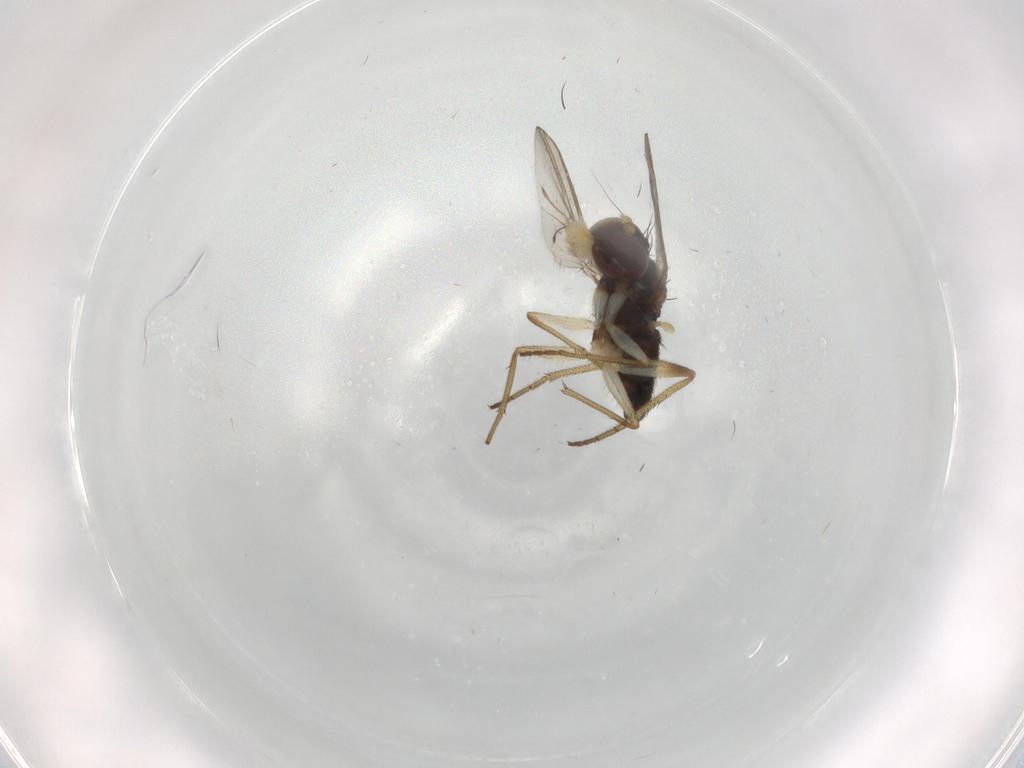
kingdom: Animalia
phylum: Arthropoda
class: Insecta
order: Diptera
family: Dolichopodidae
